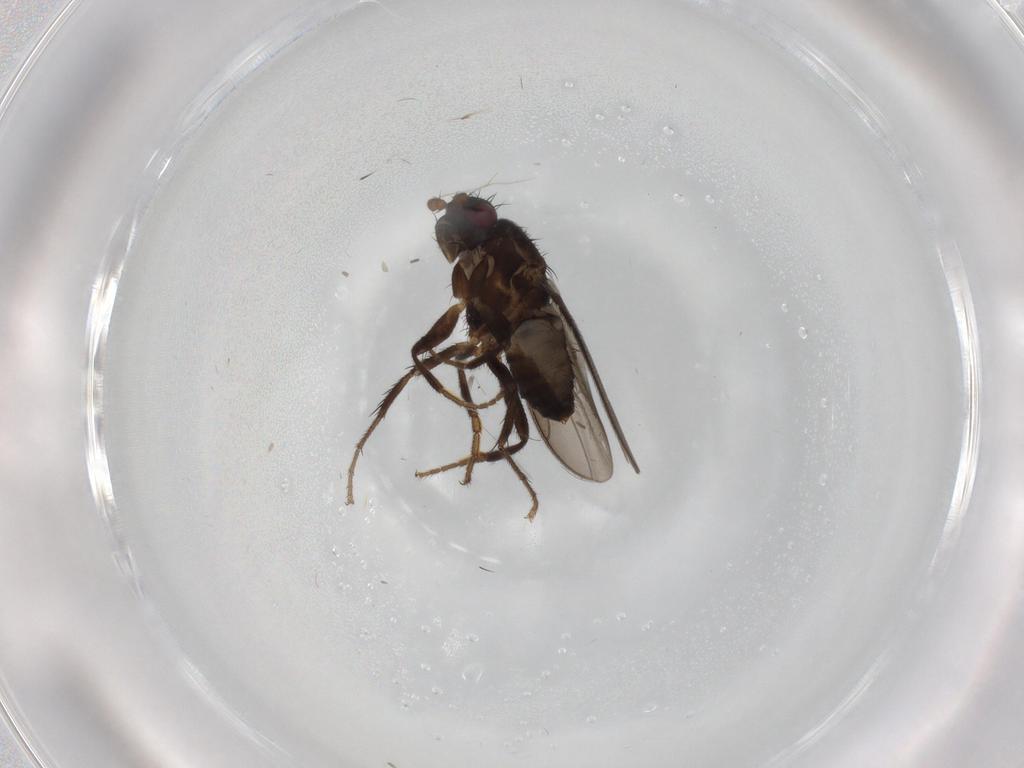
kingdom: Animalia
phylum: Arthropoda
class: Insecta
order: Diptera
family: Sphaeroceridae
